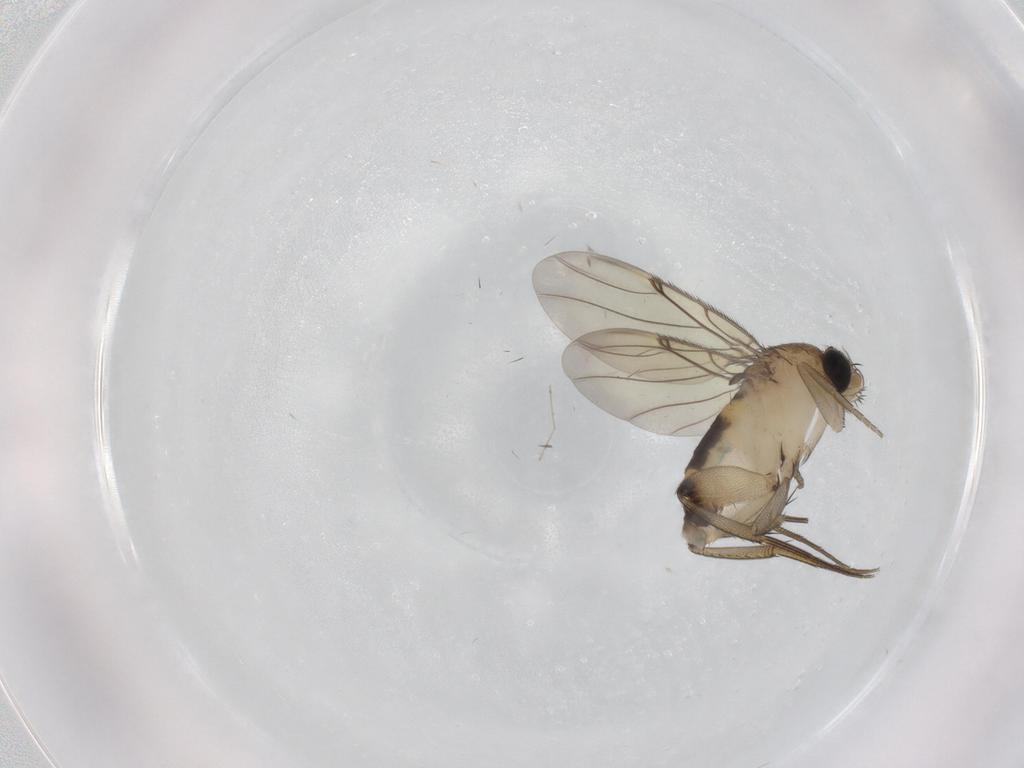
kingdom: Animalia
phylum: Arthropoda
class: Insecta
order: Diptera
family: Phoridae
